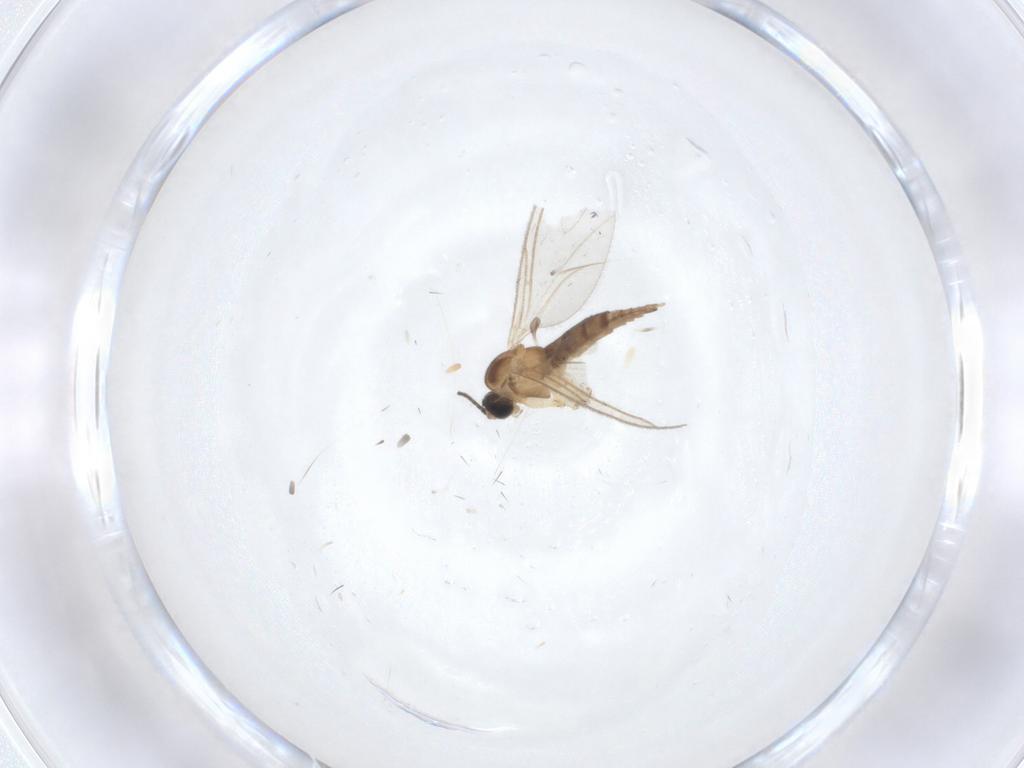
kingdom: Animalia
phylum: Arthropoda
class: Insecta
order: Diptera
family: Sciaridae
